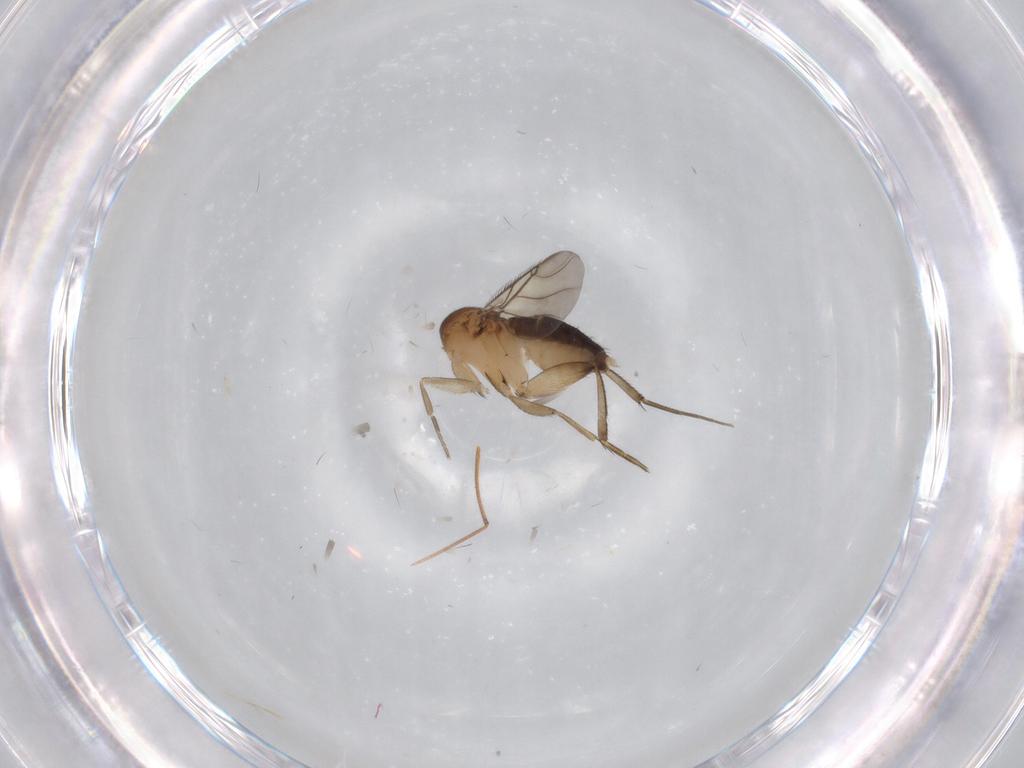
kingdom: Animalia
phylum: Arthropoda
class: Insecta
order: Diptera
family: Phoridae
